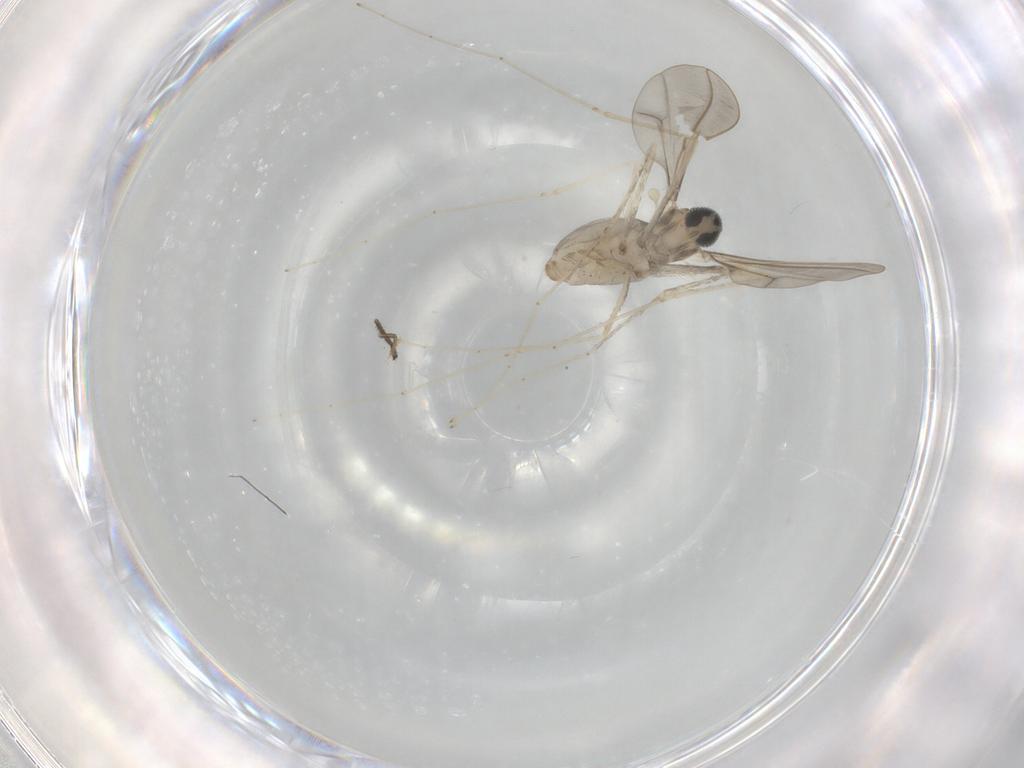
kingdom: Animalia
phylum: Arthropoda
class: Insecta
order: Diptera
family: Cecidomyiidae
